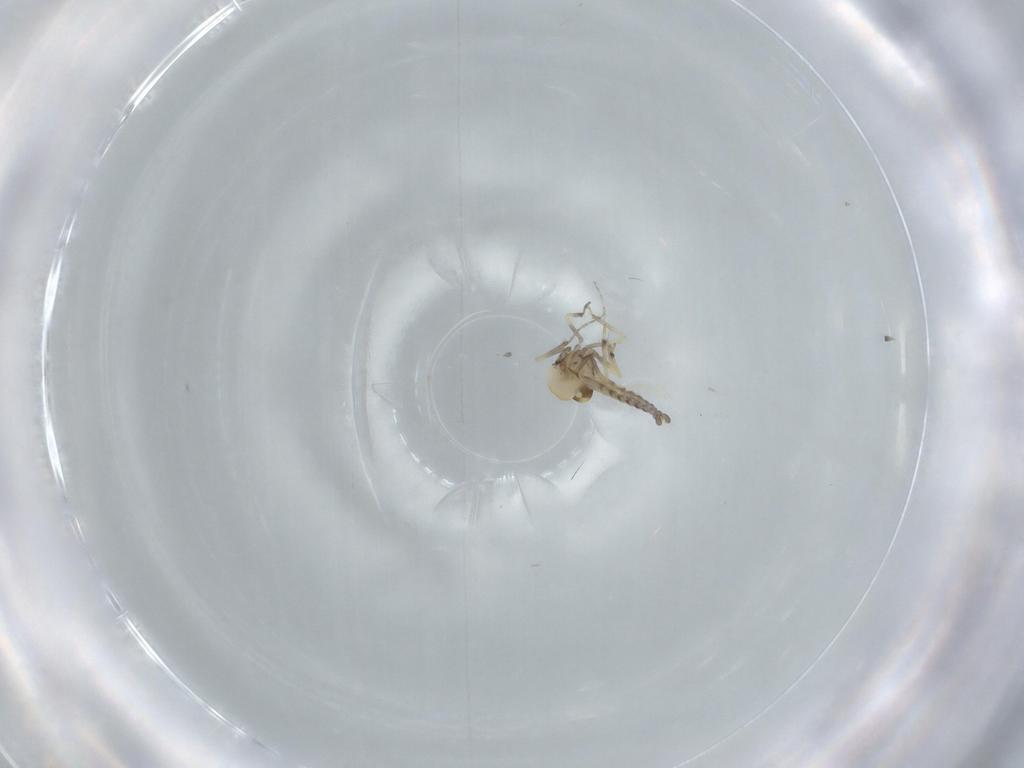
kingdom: Animalia
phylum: Arthropoda
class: Insecta
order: Diptera
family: Ceratopogonidae
